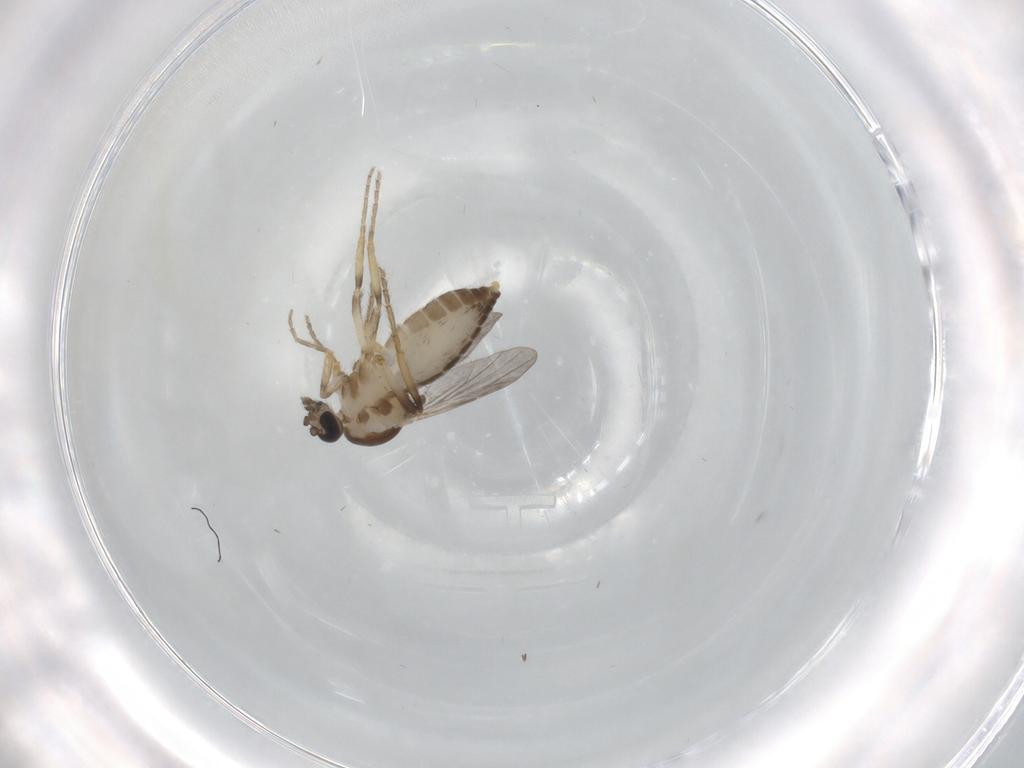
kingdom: Animalia
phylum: Arthropoda
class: Insecta
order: Diptera
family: Ceratopogonidae
